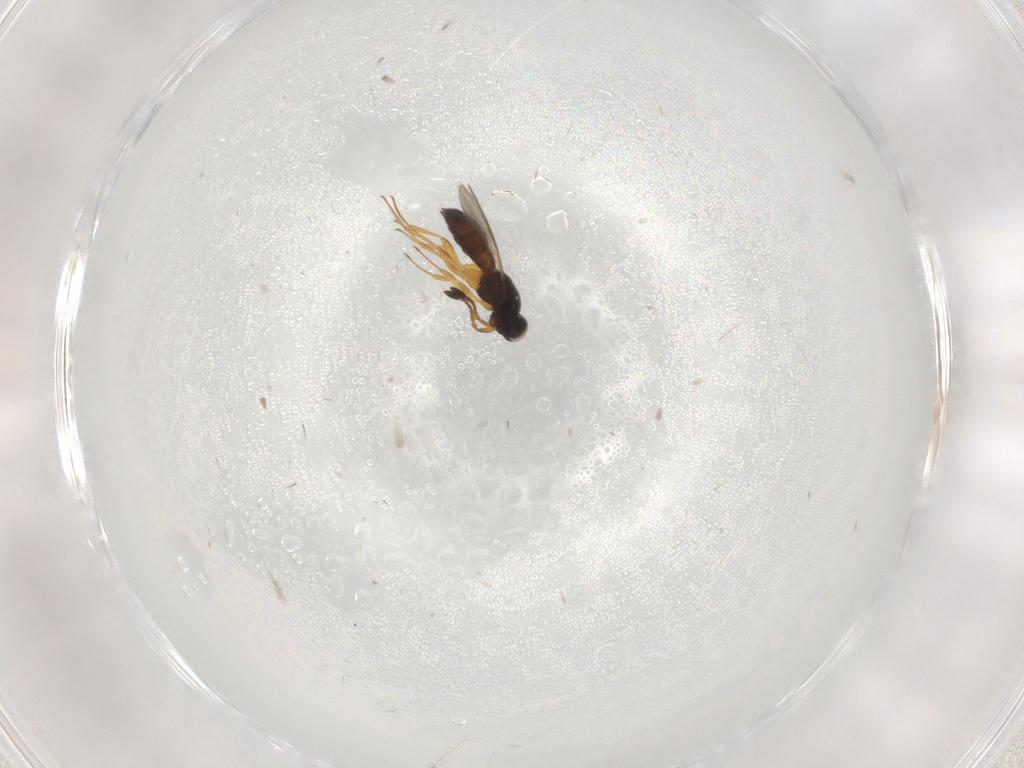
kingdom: Animalia
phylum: Arthropoda
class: Insecta
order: Hymenoptera
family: Scelionidae
